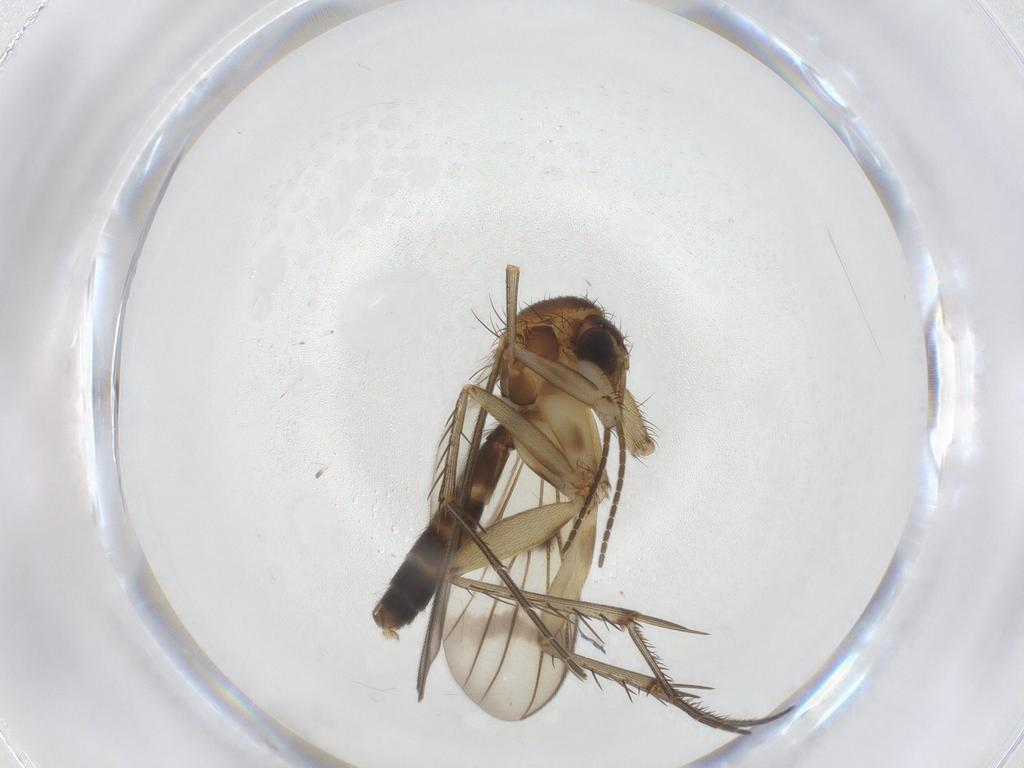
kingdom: Animalia
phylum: Arthropoda
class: Insecta
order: Diptera
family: Mycetophilidae
